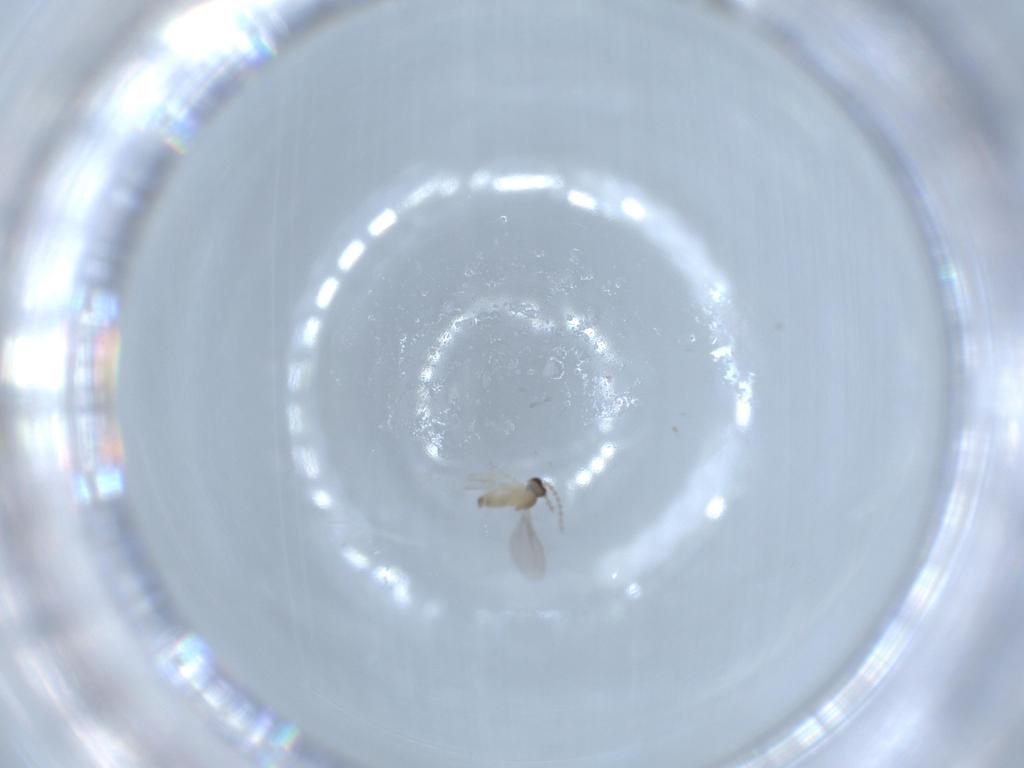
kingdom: Animalia
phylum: Arthropoda
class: Insecta
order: Diptera
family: Cecidomyiidae
